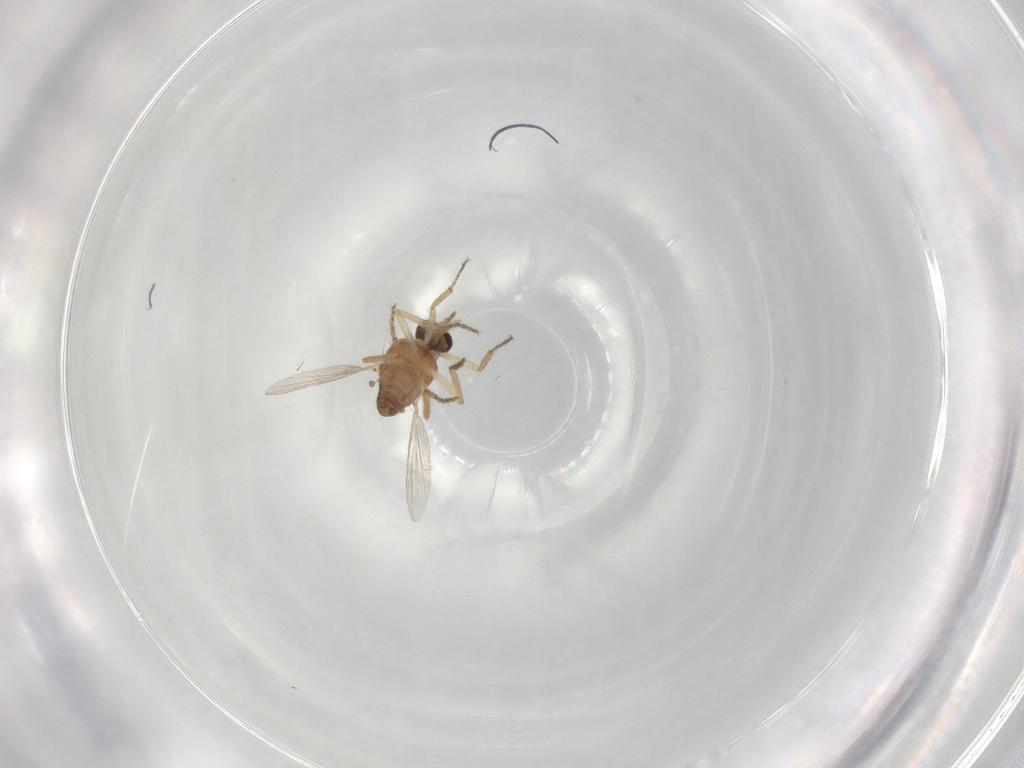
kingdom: Animalia
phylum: Arthropoda
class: Insecta
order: Diptera
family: Ceratopogonidae
